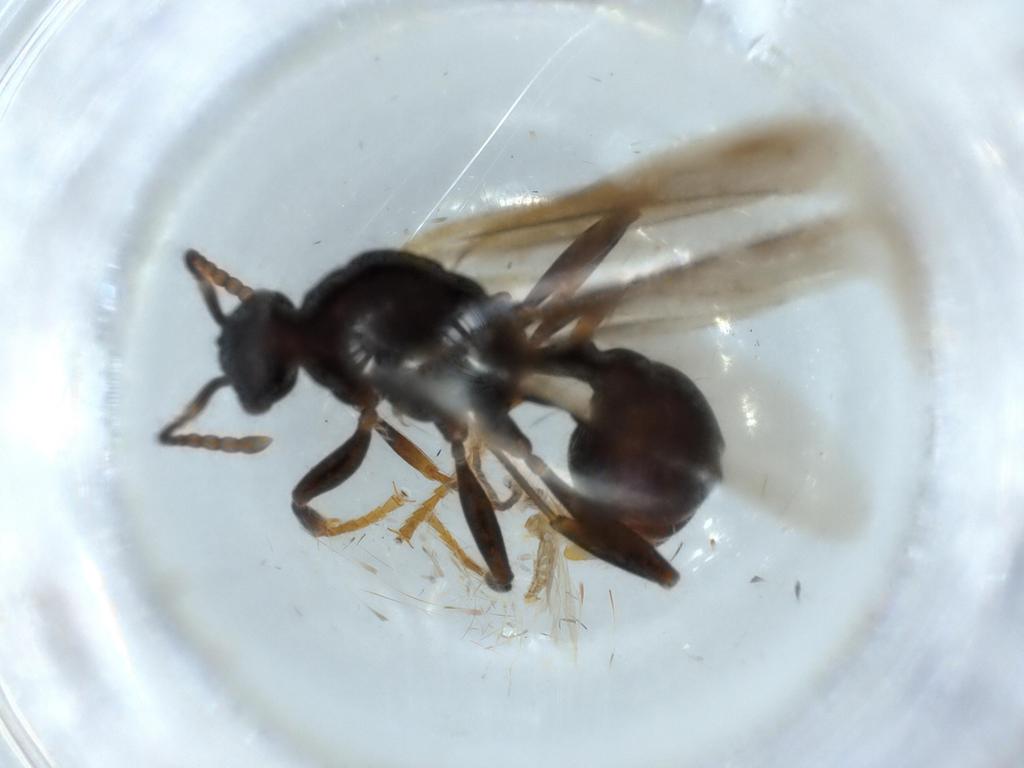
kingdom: Animalia
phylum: Arthropoda
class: Insecta
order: Hymenoptera
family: Formicidae
